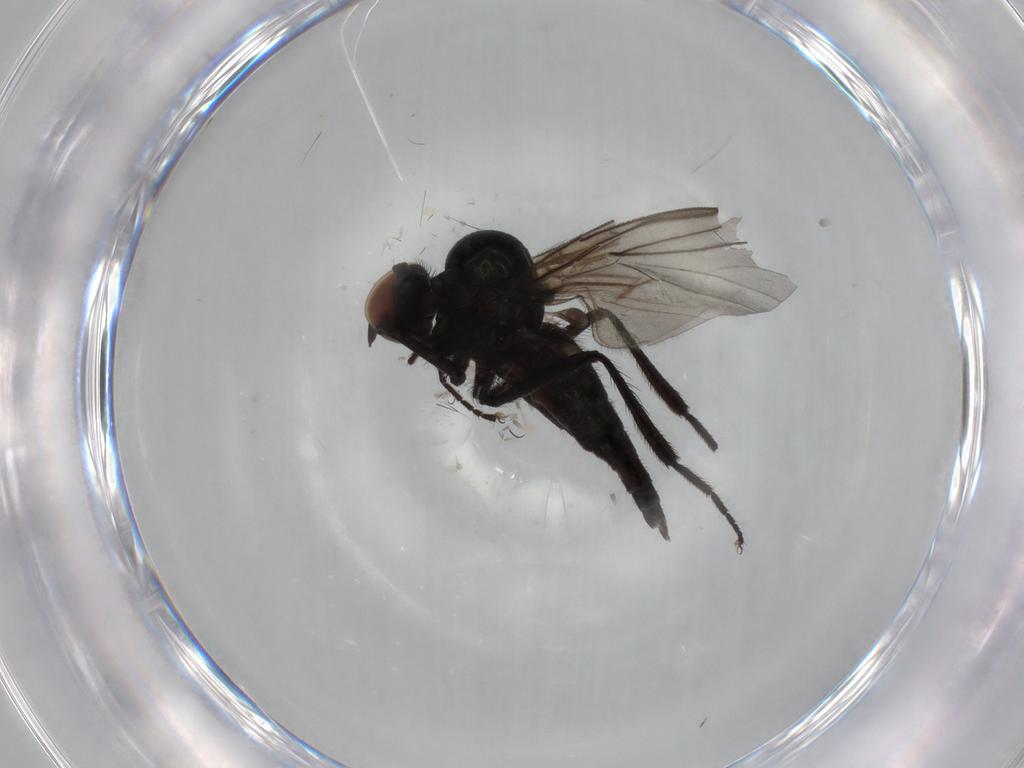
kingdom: Animalia
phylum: Arthropoda
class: Insecta
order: Diptera
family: Hybotidae
